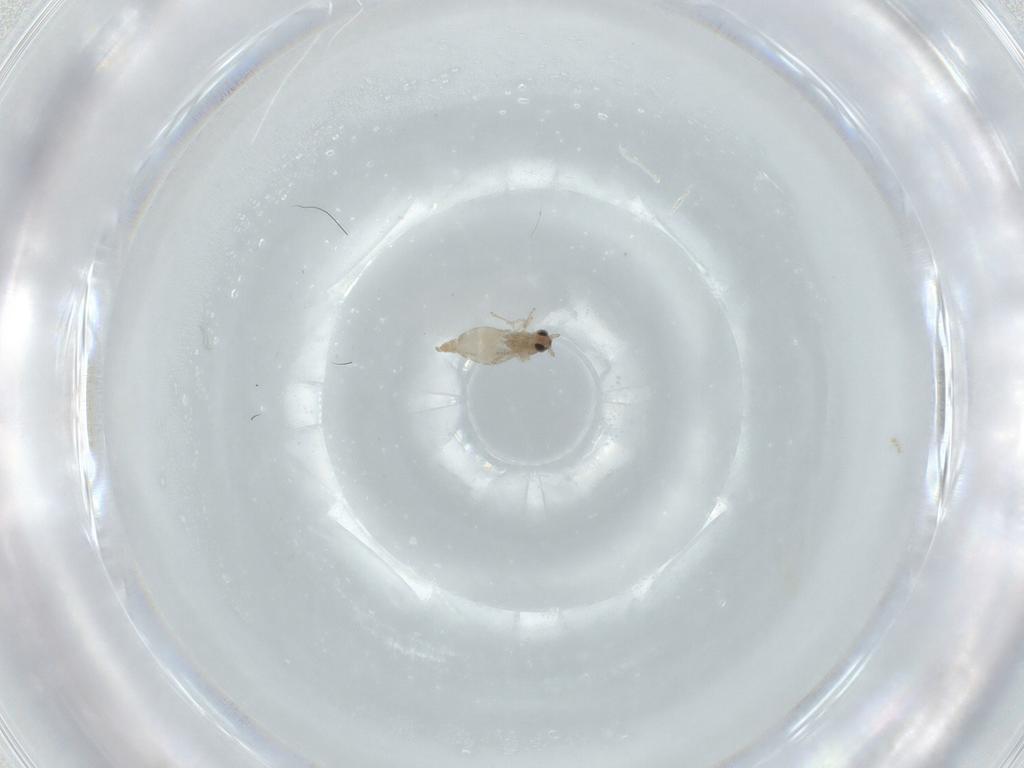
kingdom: Animalia
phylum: Arthropoda
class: Insecta
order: Diptera
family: Cecidomyiidae
